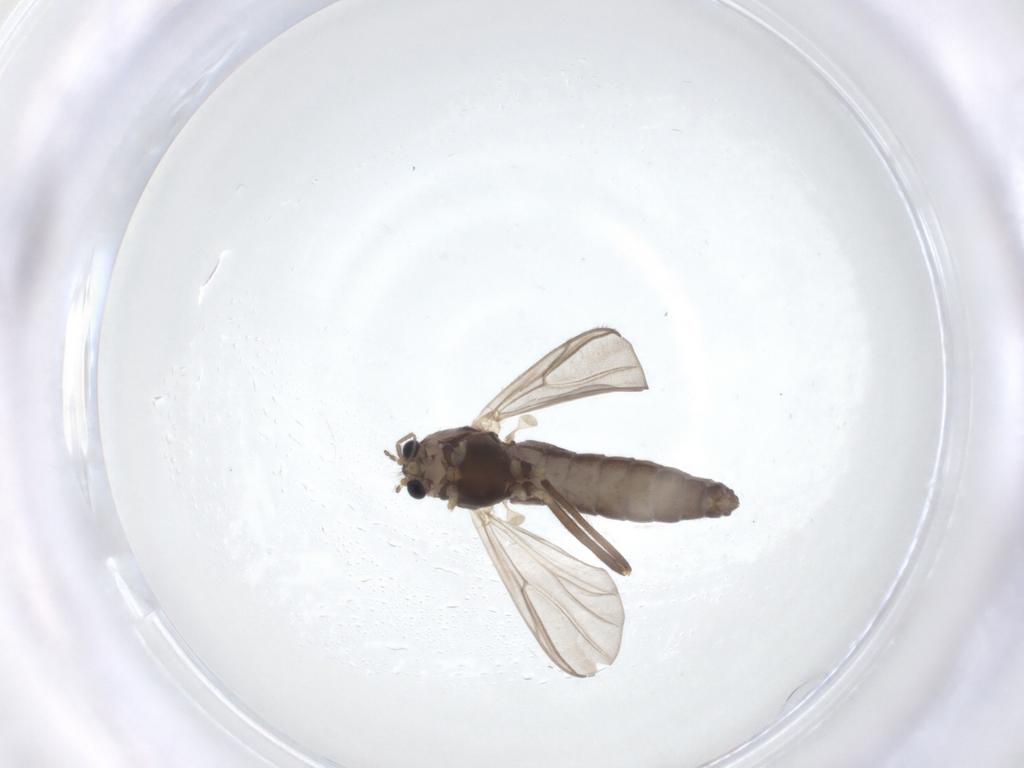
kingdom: Animalia
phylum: Arthropoda
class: Insecta
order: Diptera
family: Chironomidae
